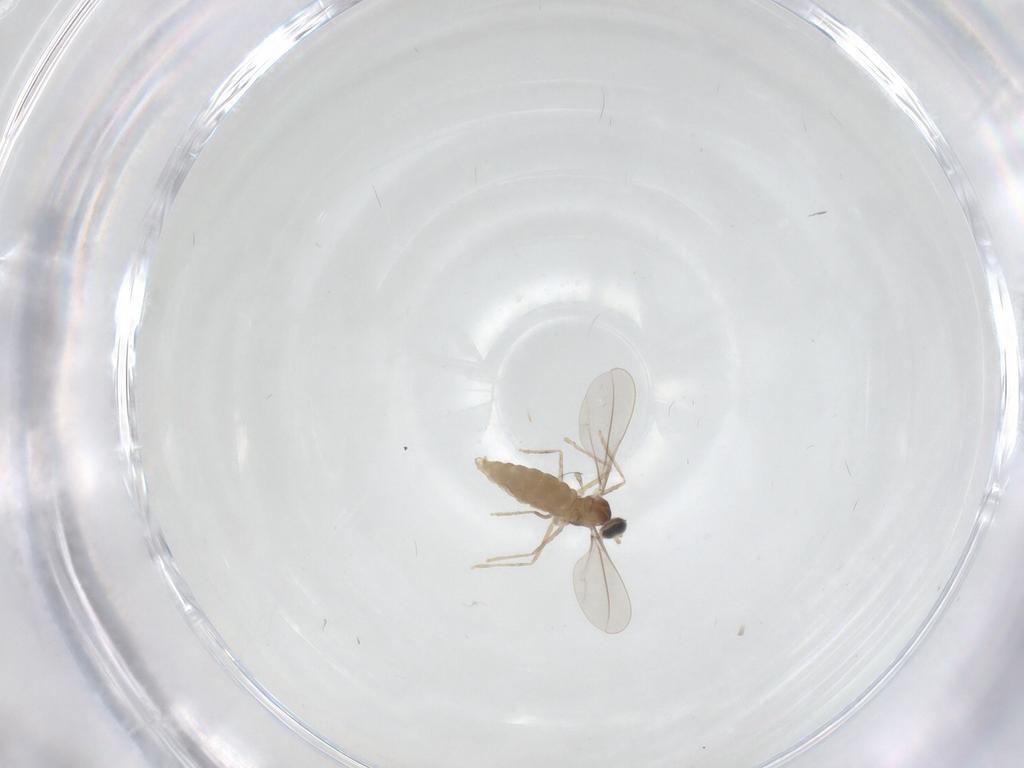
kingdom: Animalia
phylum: Arthropoda
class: Insecta
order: Diptera
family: Cecidomyiidae
